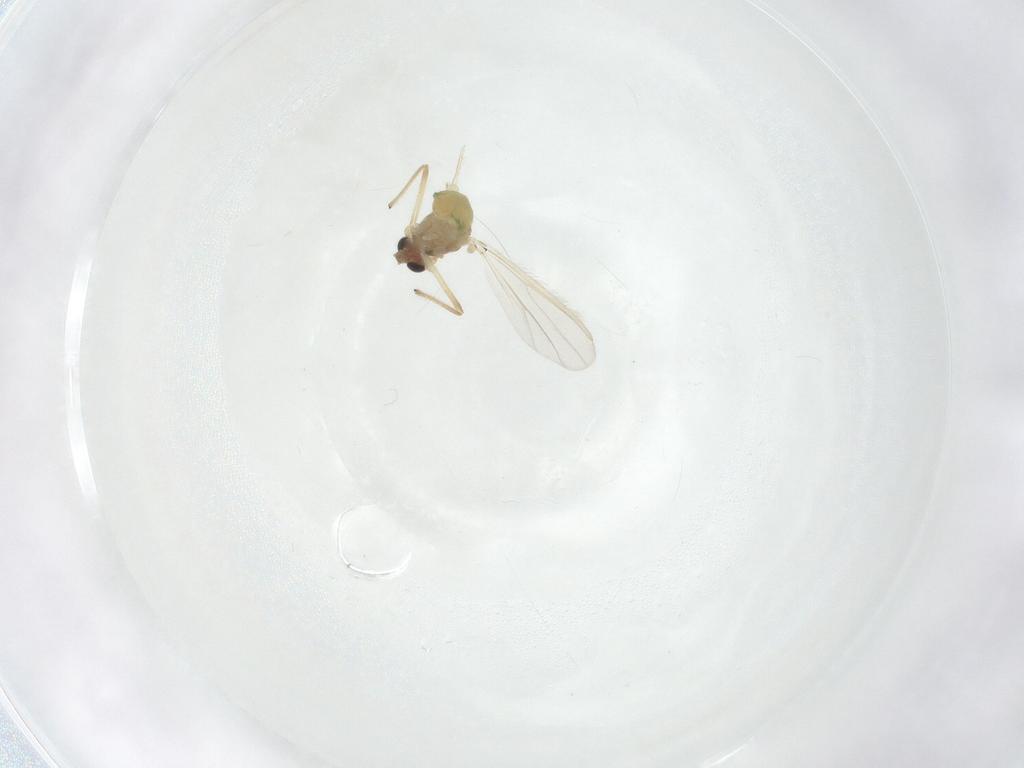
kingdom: Animalia
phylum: Arthropoda
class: Insecta
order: Diptera
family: Chironomidae
